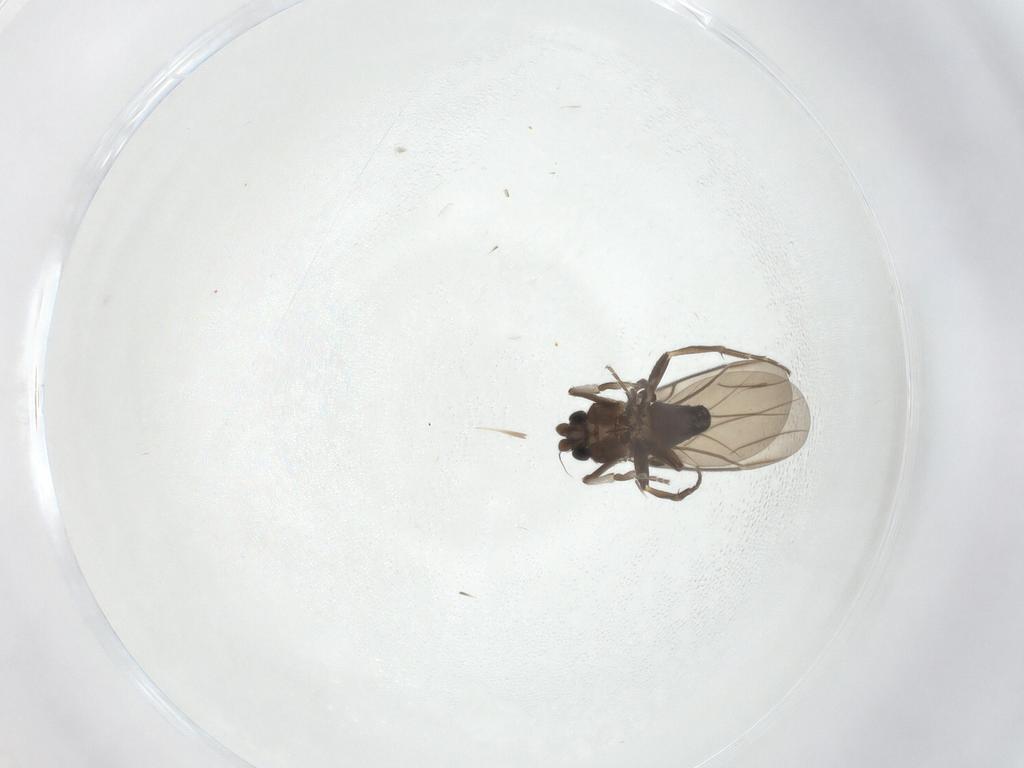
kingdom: Animalia
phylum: Arthropoda
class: Insecta
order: Diptera
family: Phoridae
